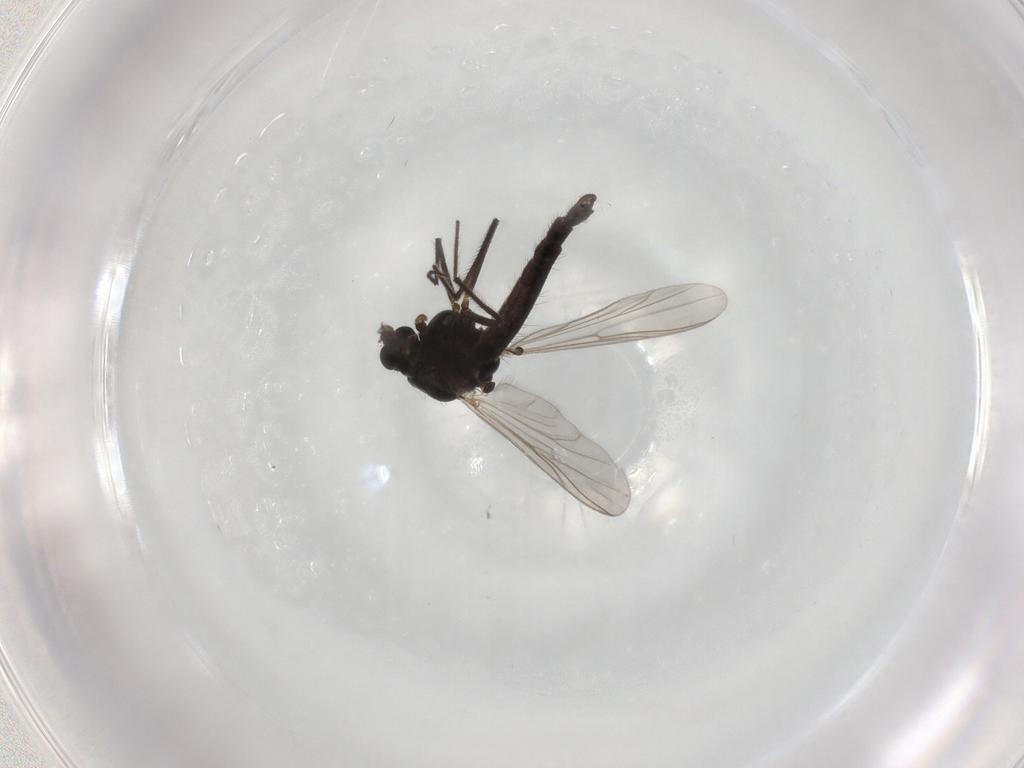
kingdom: Animalia
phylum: Arthropoda
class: Insecta
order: Diptera
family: Chironomidae
